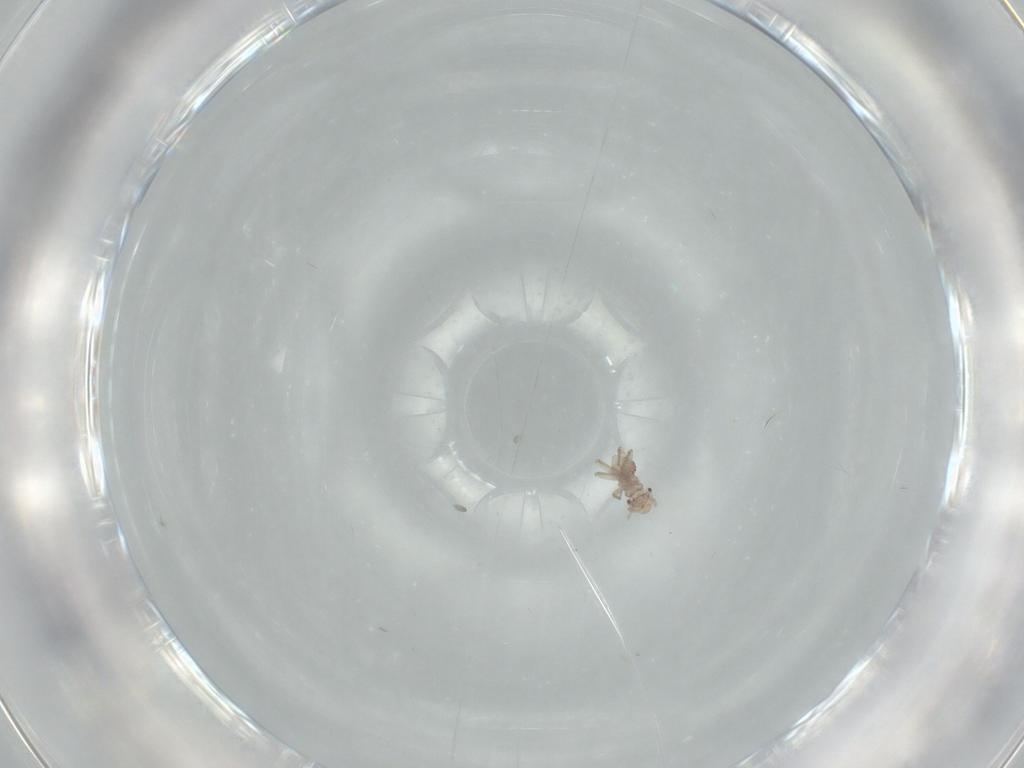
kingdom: Animalia
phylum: Arthropoda
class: Insecta
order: Psocodea
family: Lepidopsocidae
